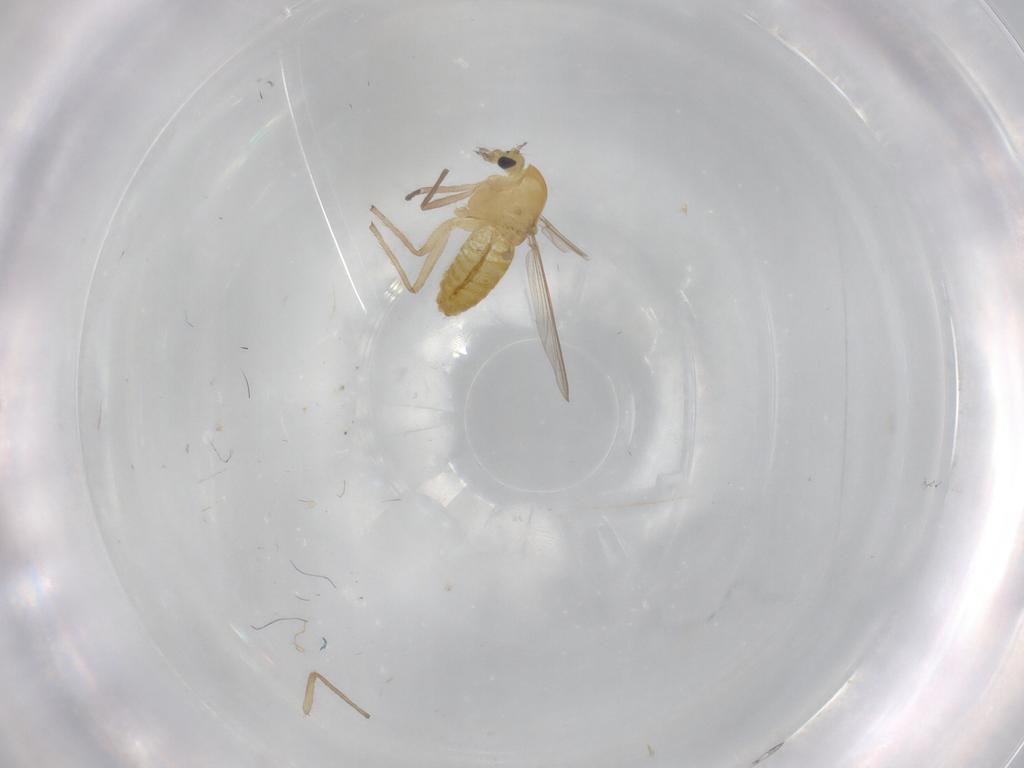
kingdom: Animalia
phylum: Arthropoda
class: Insecta
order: Diptera
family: Chironomidae
